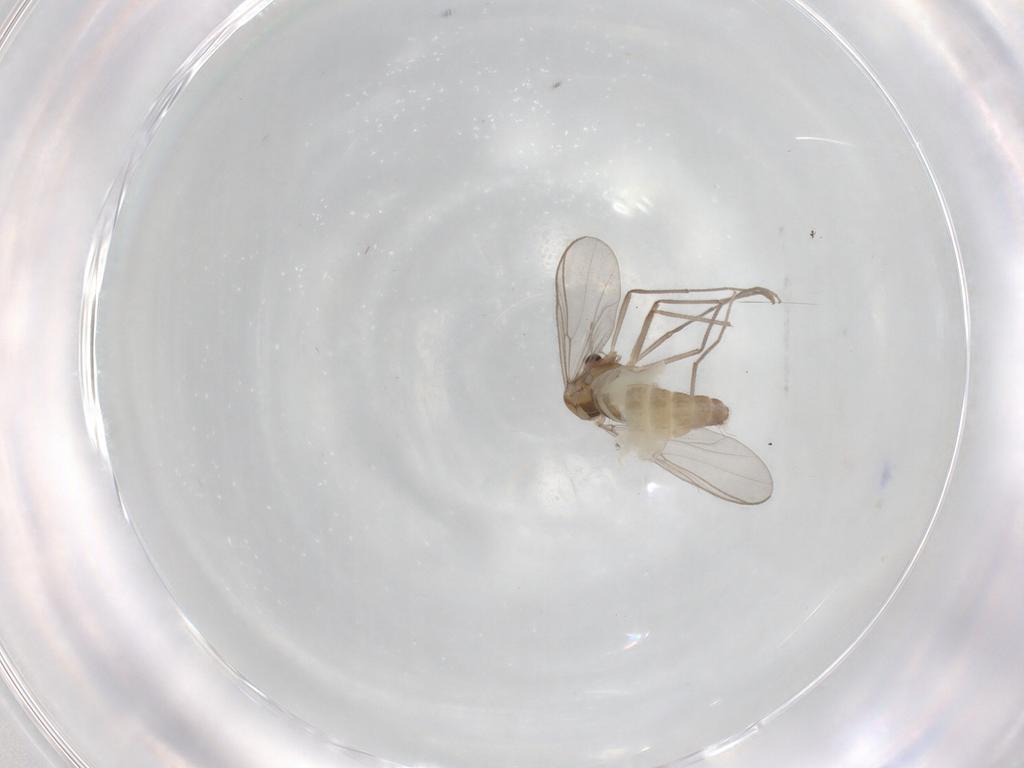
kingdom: Animalia
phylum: Arthropoda
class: Insecta
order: Diptera
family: Chironomidae
